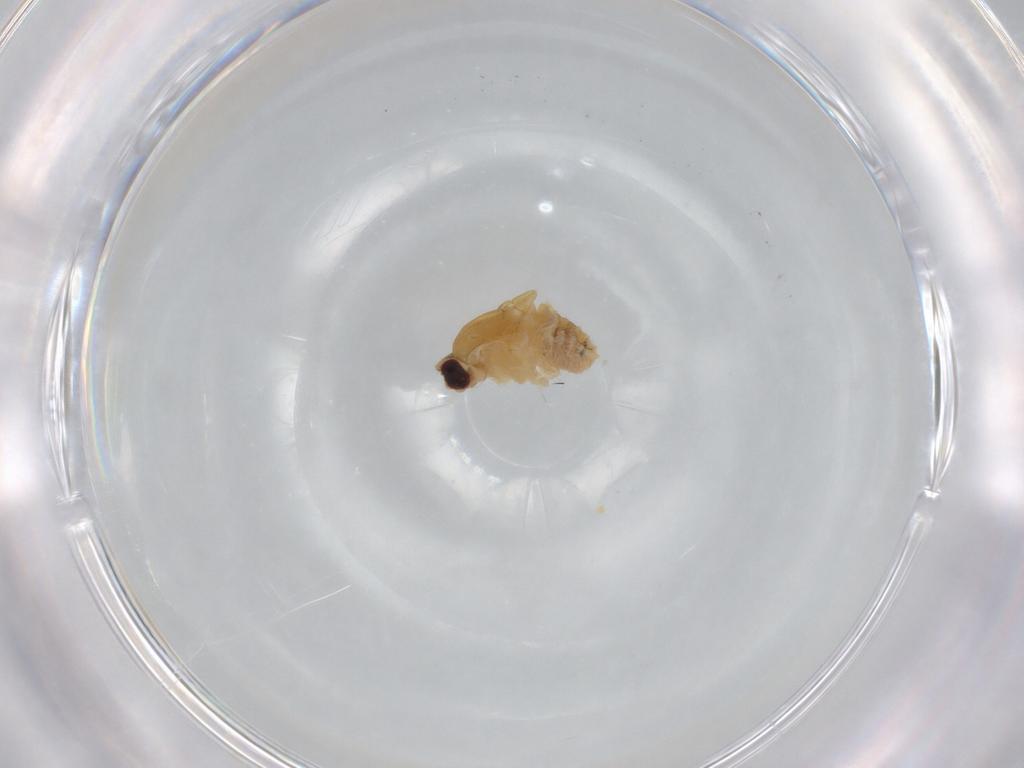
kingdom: Animalia
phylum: Arthropoda
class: Insecta
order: Diptera
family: Chyromyidae
